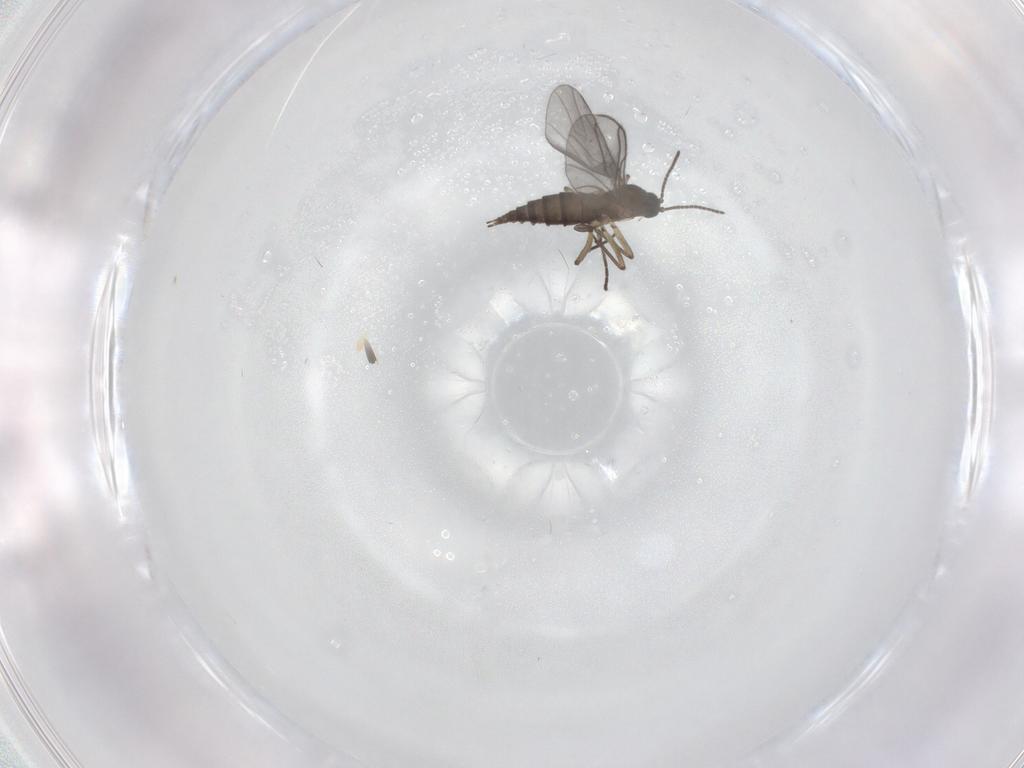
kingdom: Animalia
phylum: Arthropoda
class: Insecta
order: Diptera
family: Sciaridae
